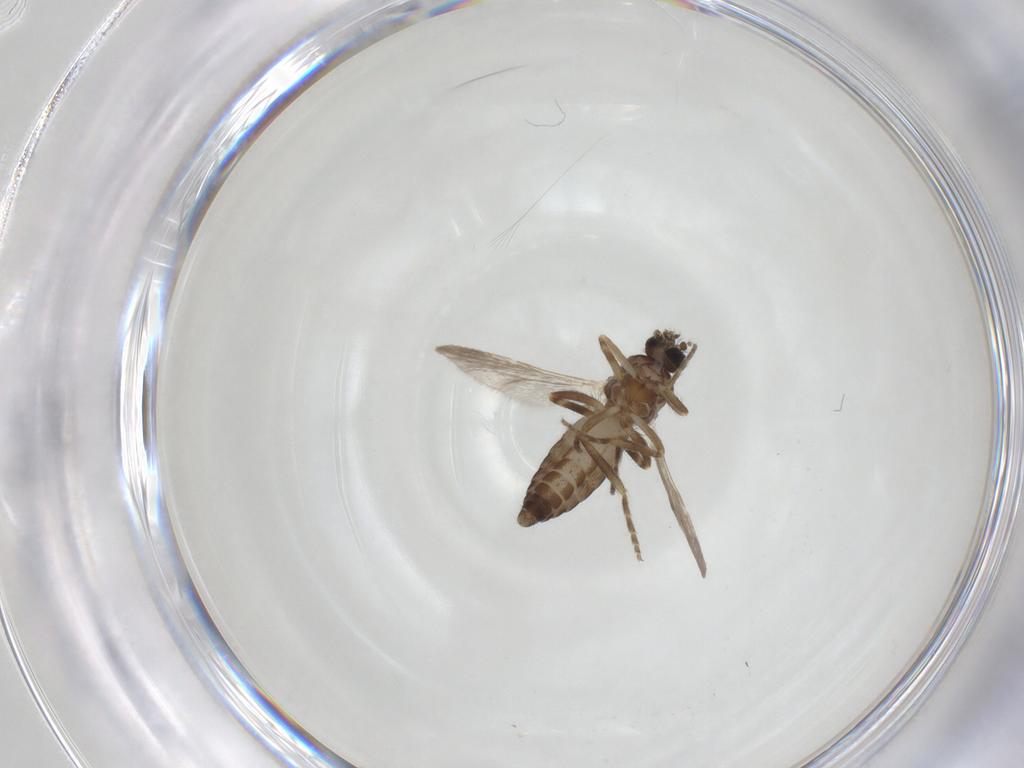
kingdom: Animalia
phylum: Arthropoda
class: Insecta
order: Diptera
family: Ceratopogonidae
